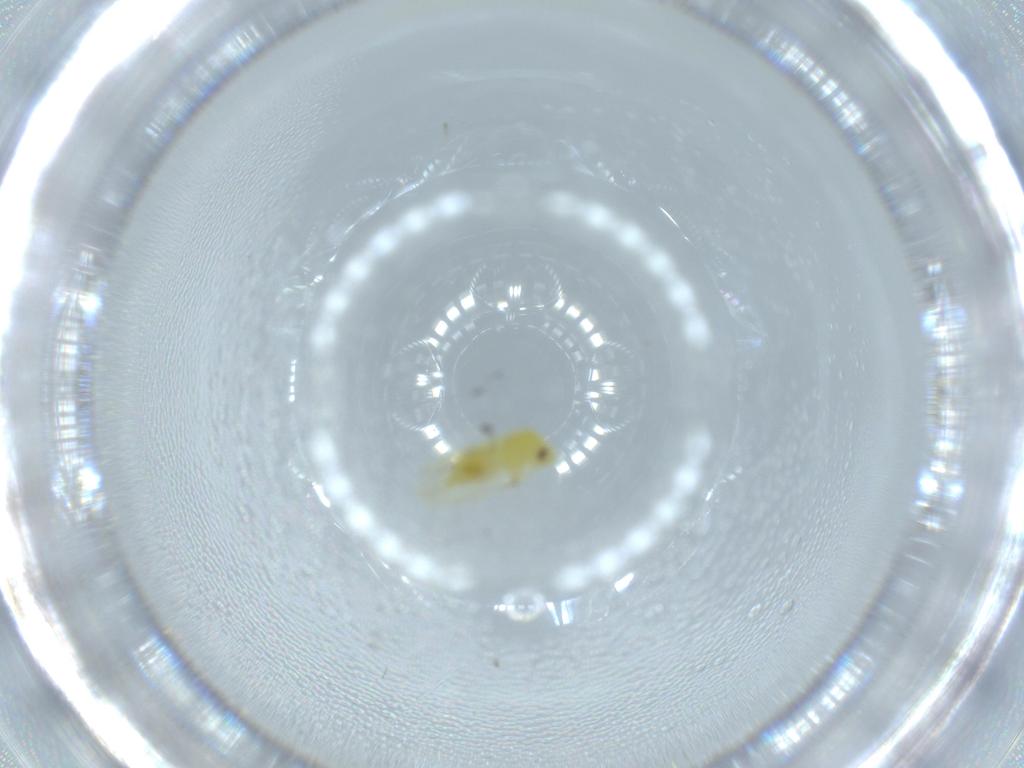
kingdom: Animalia
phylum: Arthropoda
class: Insecta
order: Hemiptera
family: Aleyrodidae
